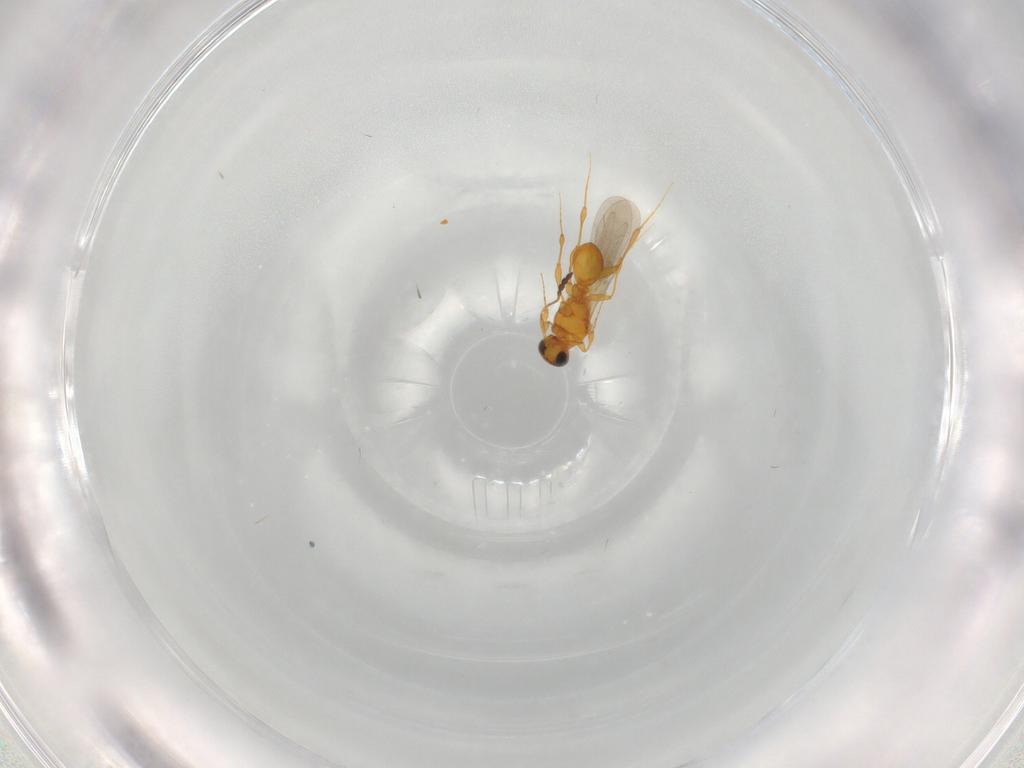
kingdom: Animalia
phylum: Arthropoda
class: Insecta
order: Hymenoptera
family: Platygastridae
